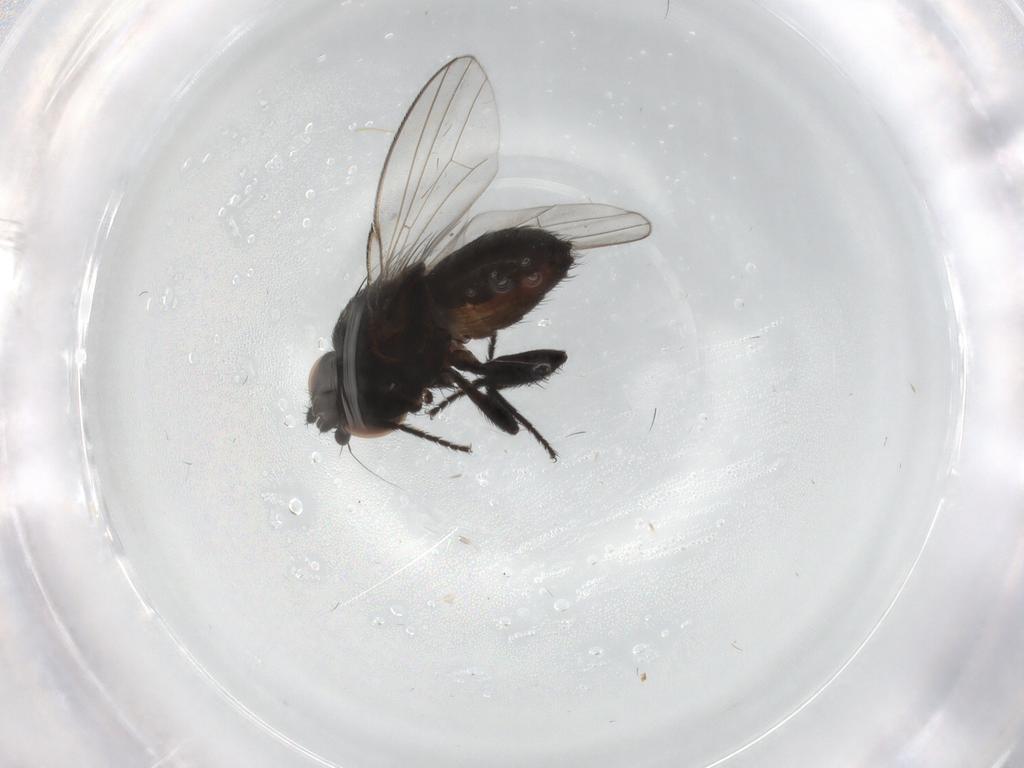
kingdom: Animalia
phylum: Arthropoda
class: Insecta
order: Diptera
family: Milichiidae
